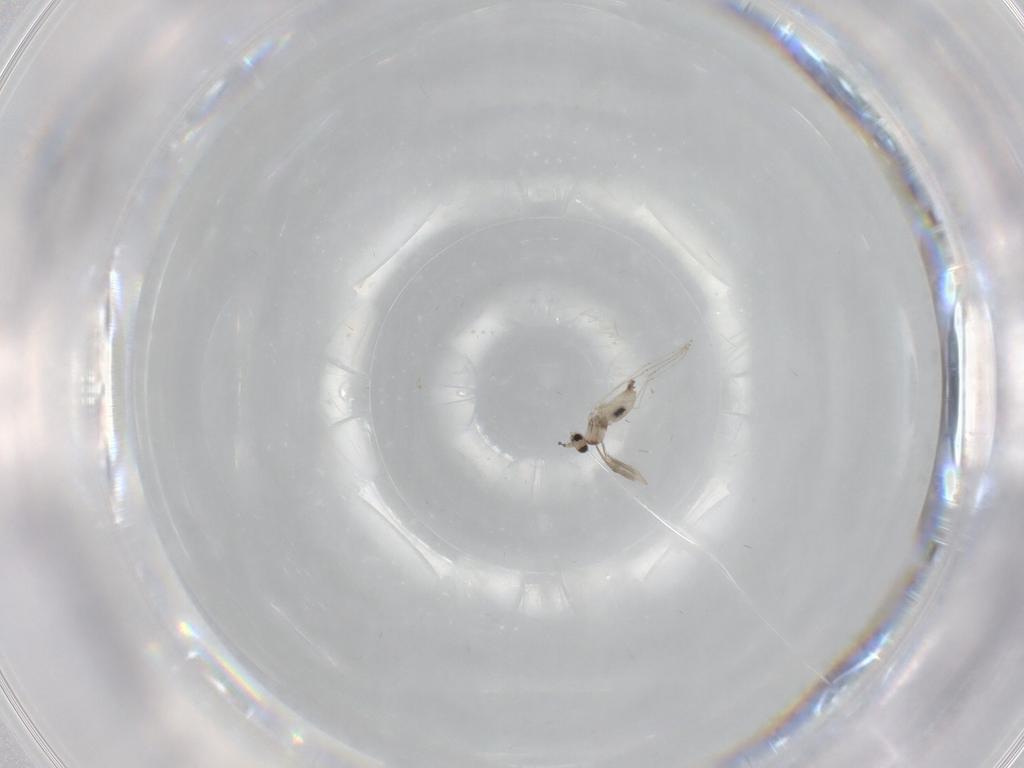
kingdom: Animalia
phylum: Arthropoda
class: Insecta
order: Diptera
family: Cecidomyiidae
